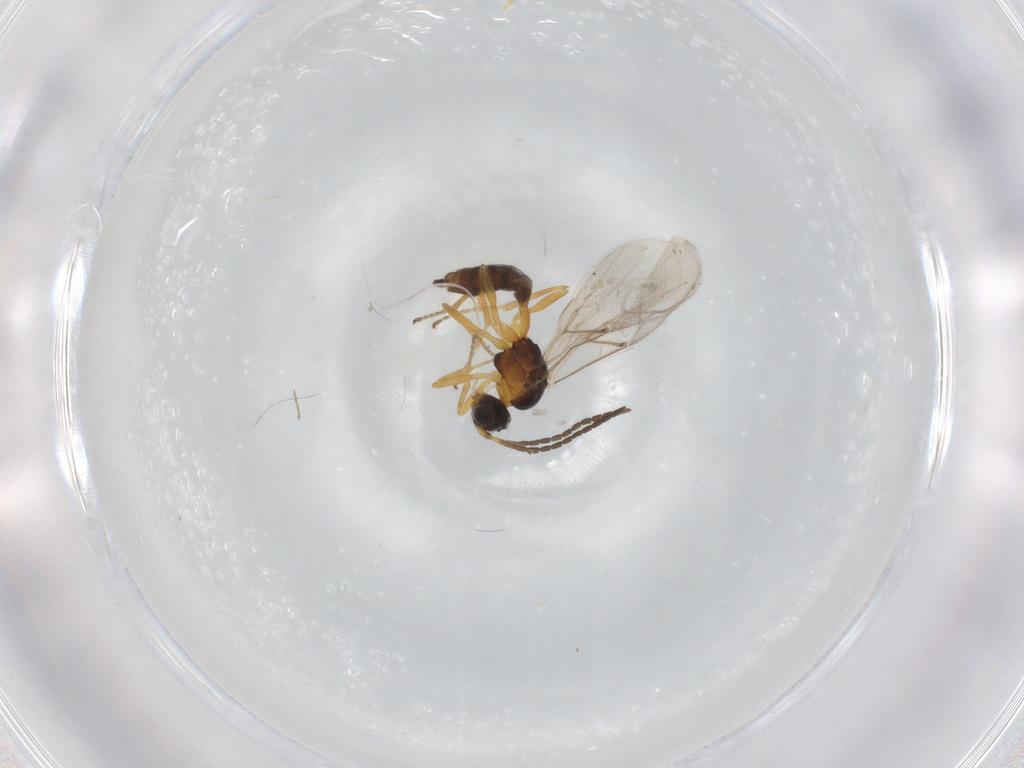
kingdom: Animalia
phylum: Arthropoda
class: Insecta
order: Hymenoptera
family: Braconidae
